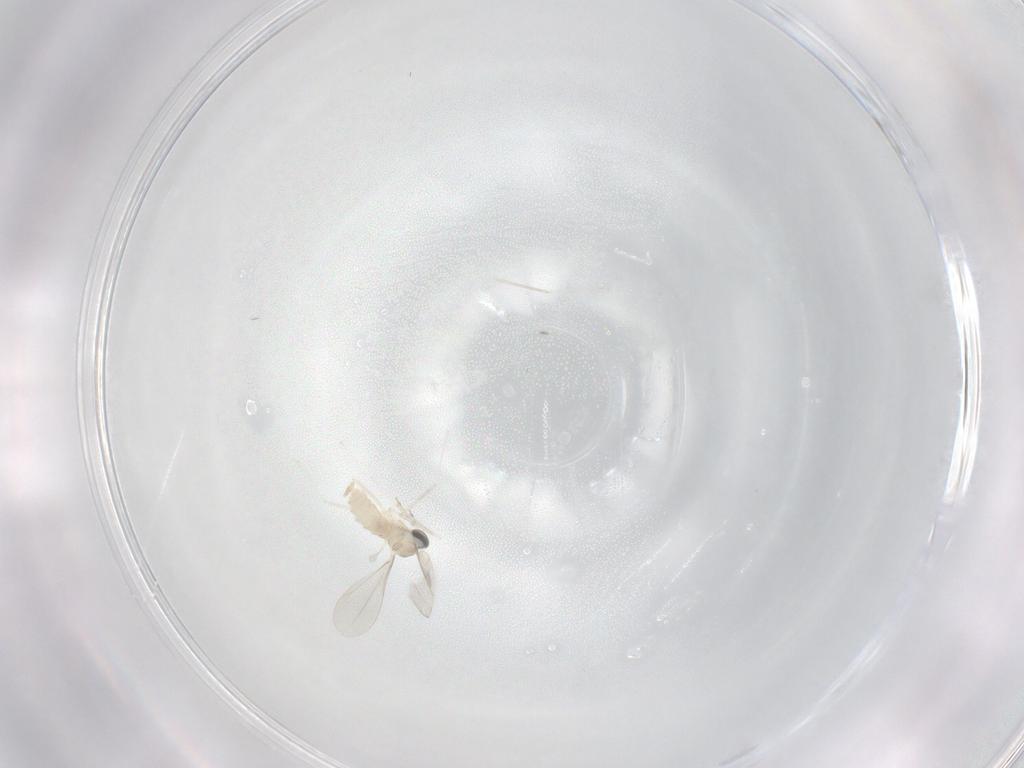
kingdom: Animalia
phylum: Arthropoda
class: Insecta
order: Diptera
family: Cecidomyiidae
